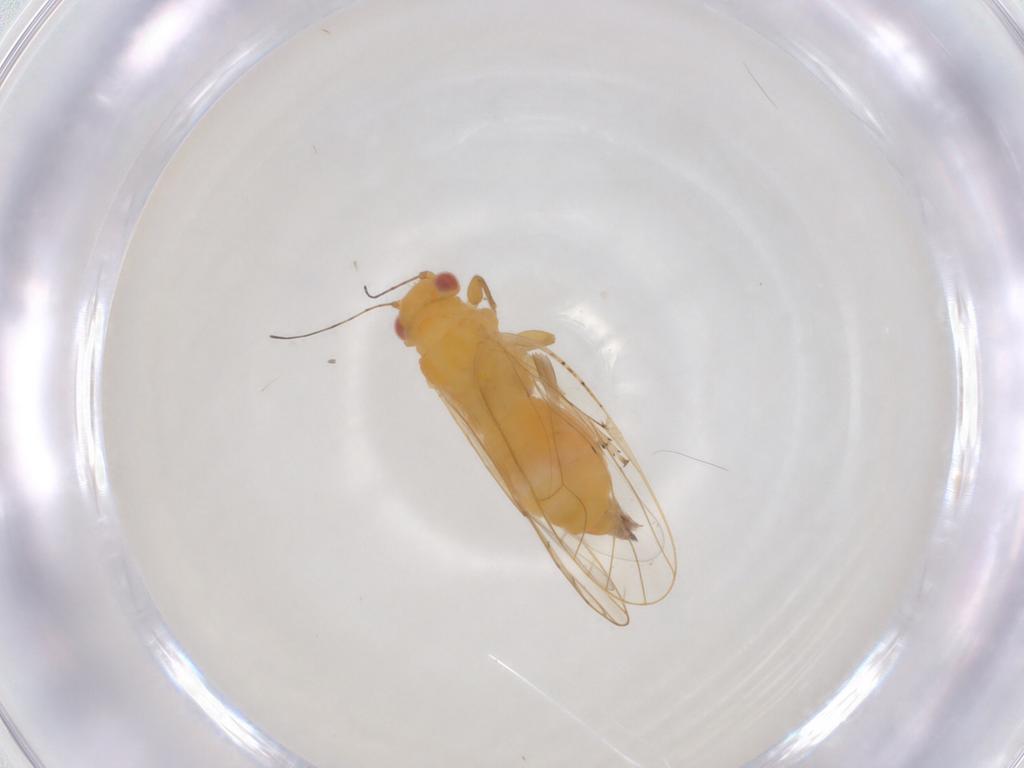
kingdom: Animalia
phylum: Arthropoda
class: Insecta
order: Hemiptera
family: Cicadellidae
